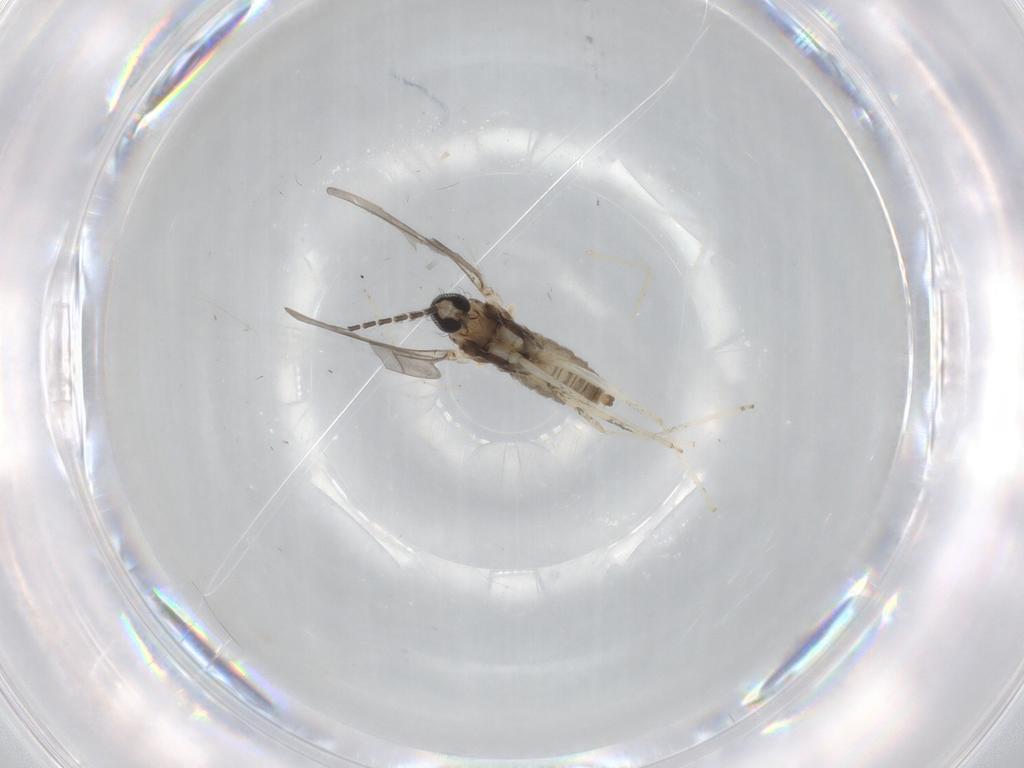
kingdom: Animalia
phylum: Arthropoda
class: Insecta
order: Diptera
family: Cecidomyiidae
